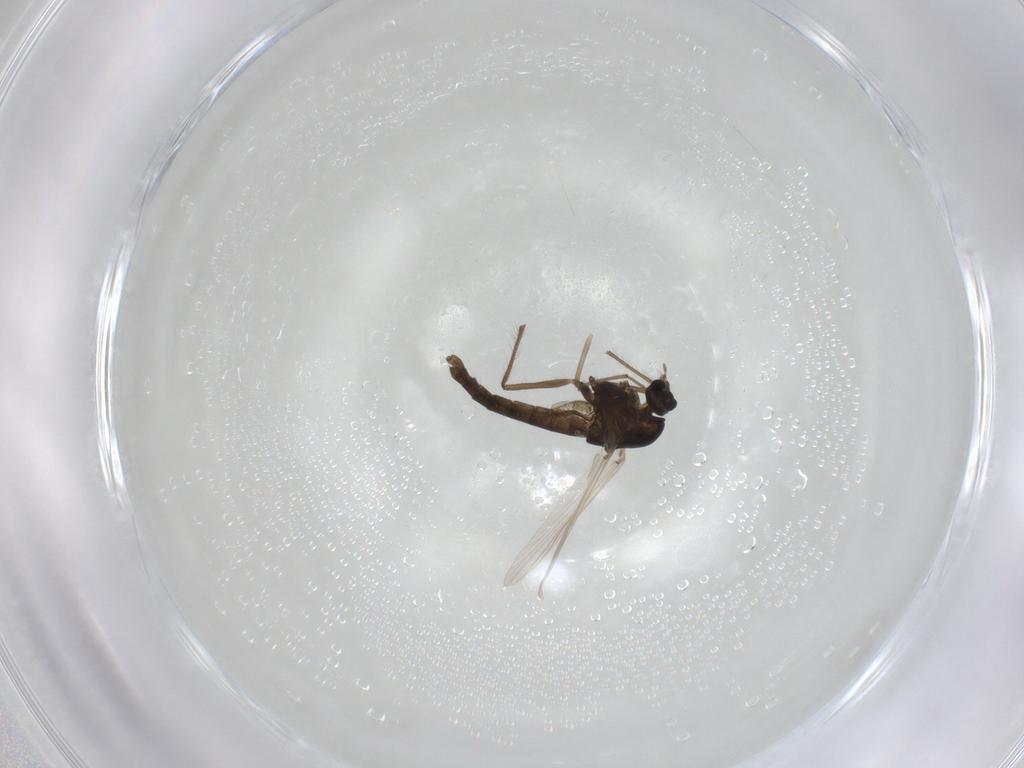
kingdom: Animalia
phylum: Arthropoda
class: Insecta
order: Diptera
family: Chironomidae
